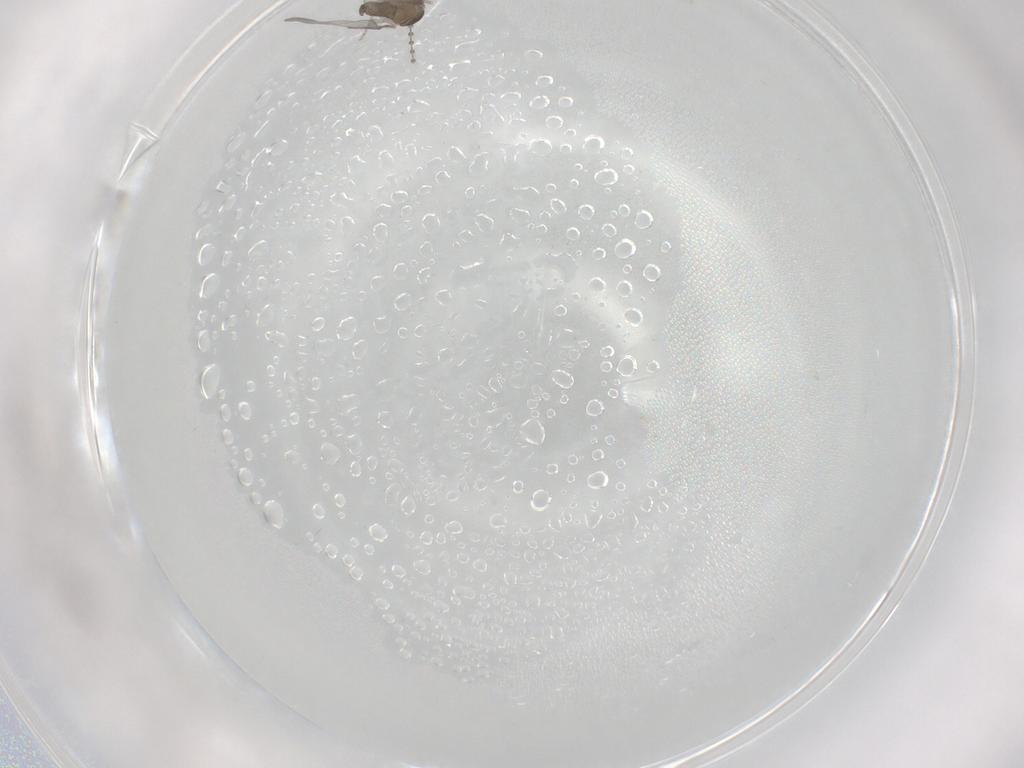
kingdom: Animalia
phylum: Arthropoda
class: Insecta
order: Diptera
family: Cecidomyiidae
